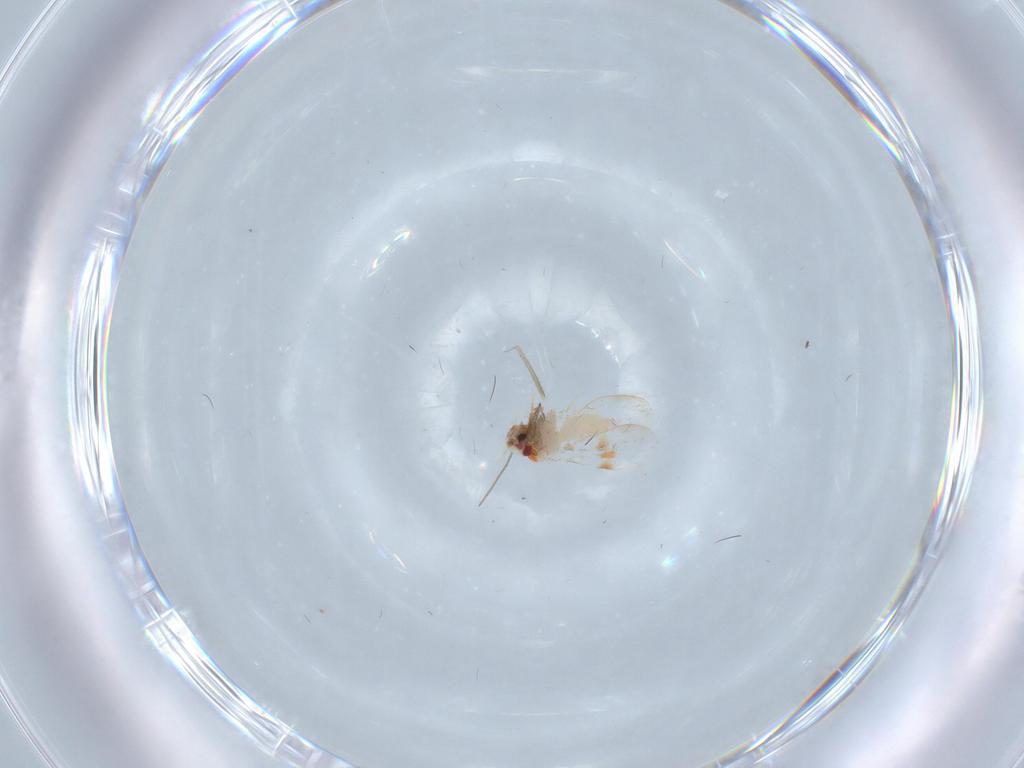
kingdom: Animalia
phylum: Arthropoda
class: Insecta
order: Hemiptera
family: Aleyrodidae
